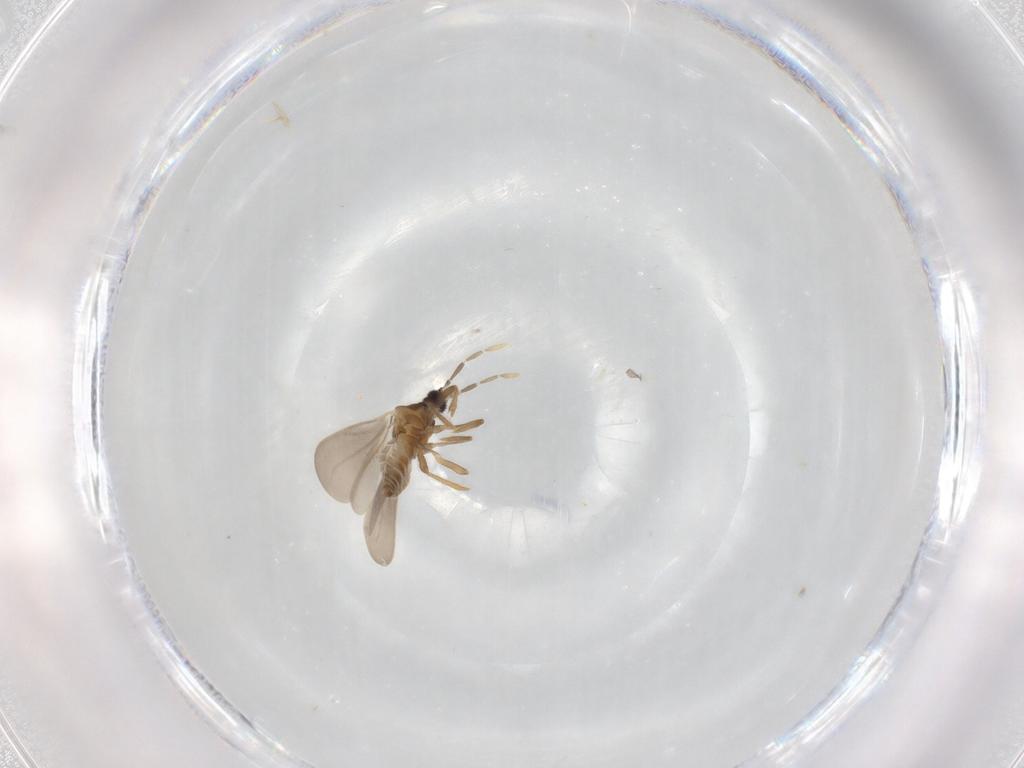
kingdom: Animalia
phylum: Arthropoda
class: Insecta
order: Hemiptera
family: Enicocephalidae
